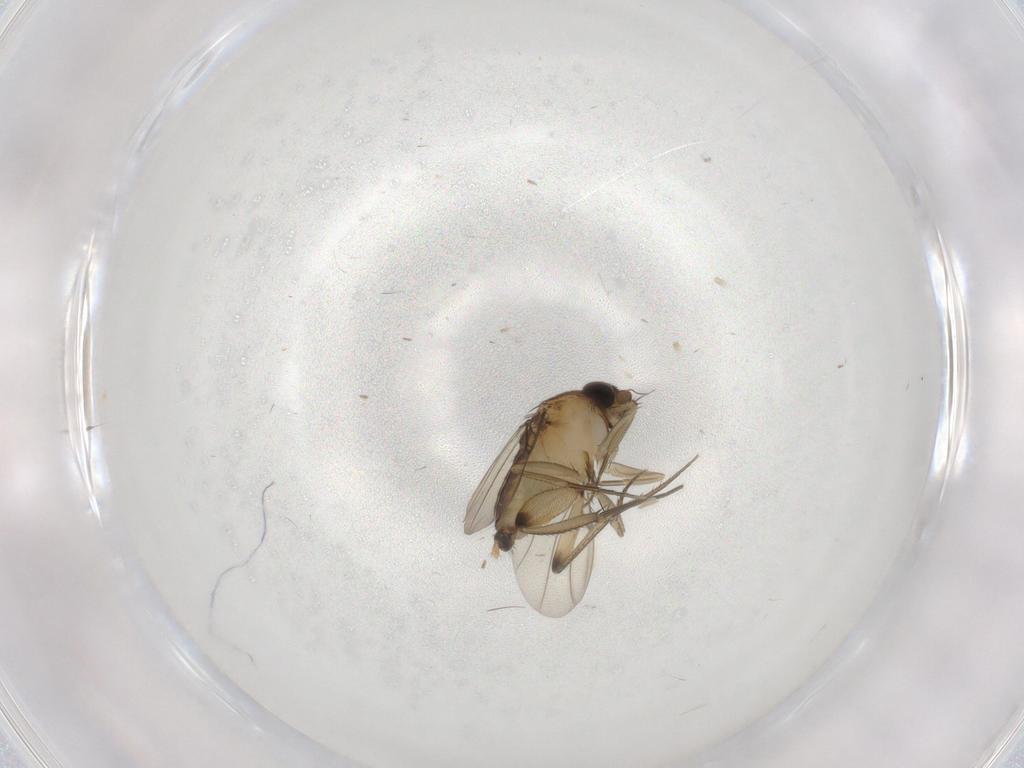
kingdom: Animalia
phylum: Arthropoda
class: Insecta
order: Diptera
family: Phoridae
